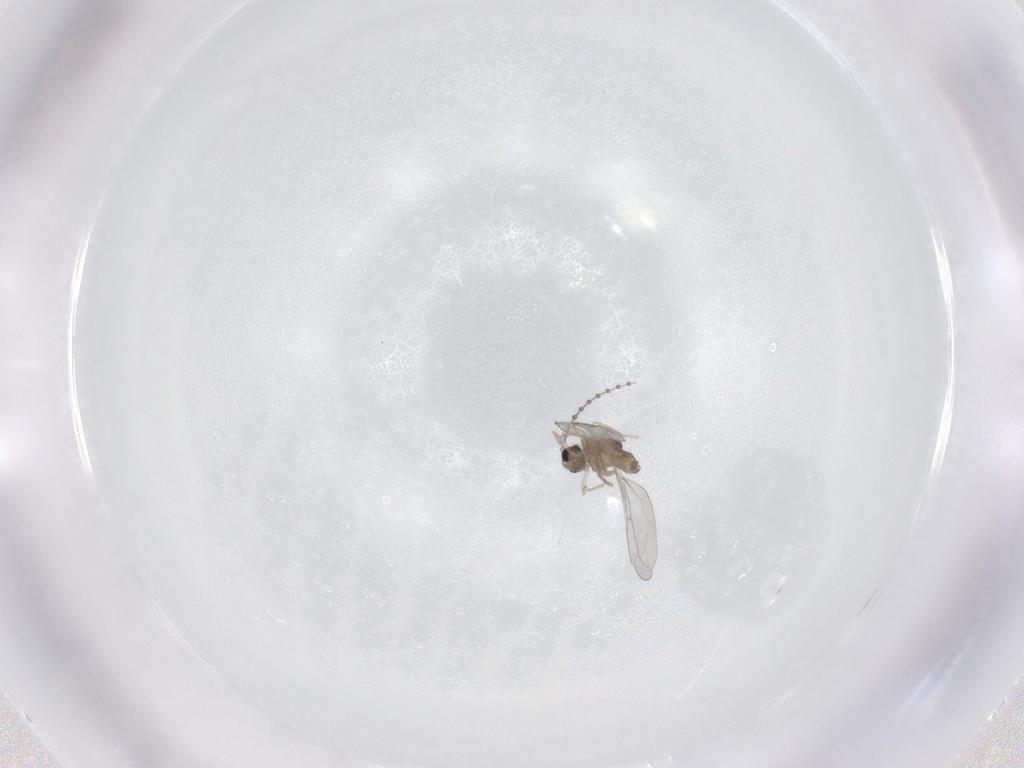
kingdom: Animalia
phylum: Arthropoda
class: Insecta
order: Diptera
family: Cecidomyiidae
